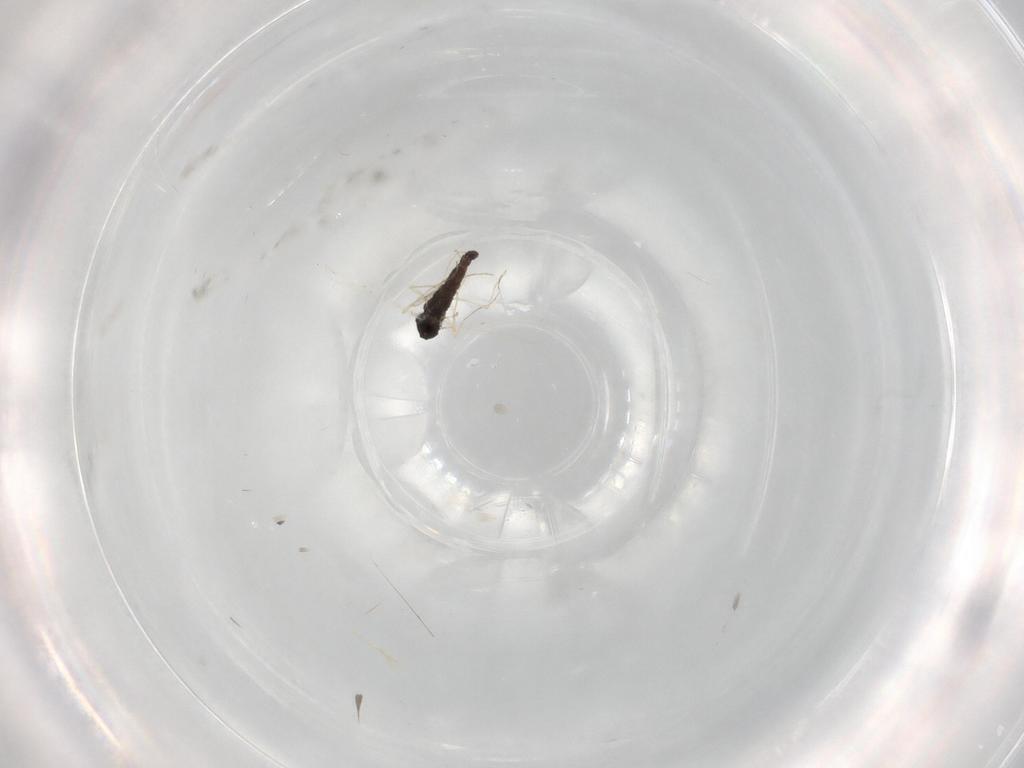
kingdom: Animalia
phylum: Arthropoda
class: Insecta
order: Diptera
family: Chironomidae
